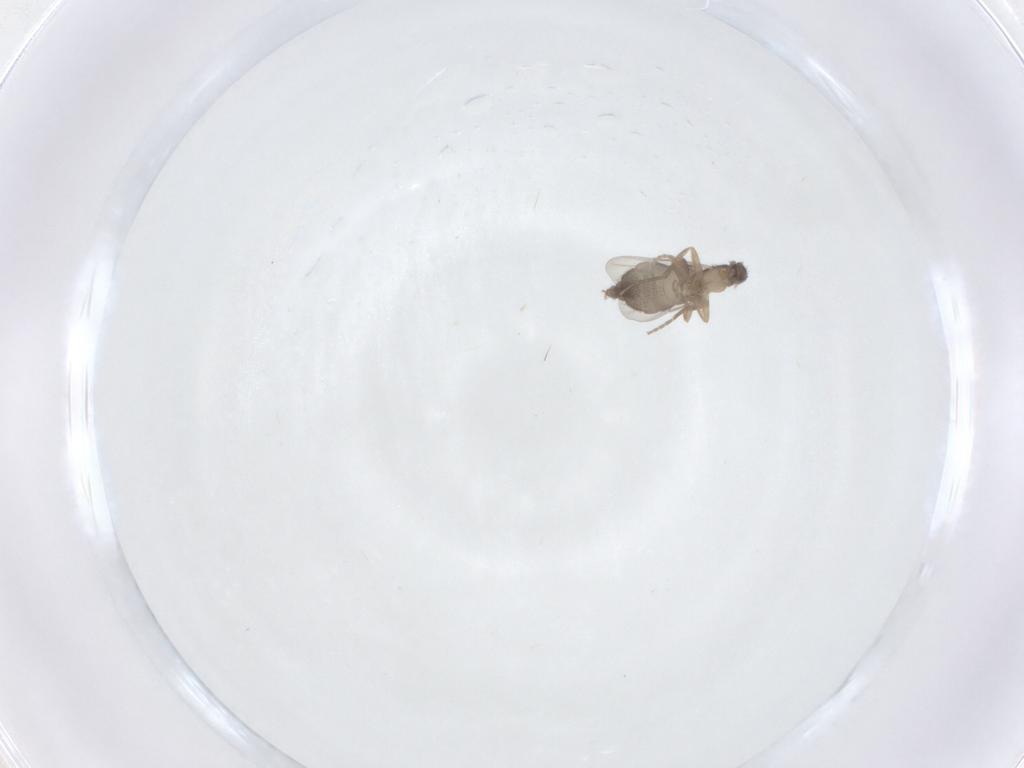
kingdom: Animalia
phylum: Arthropoda
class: Insecta
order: Diptera
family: Phoridae
